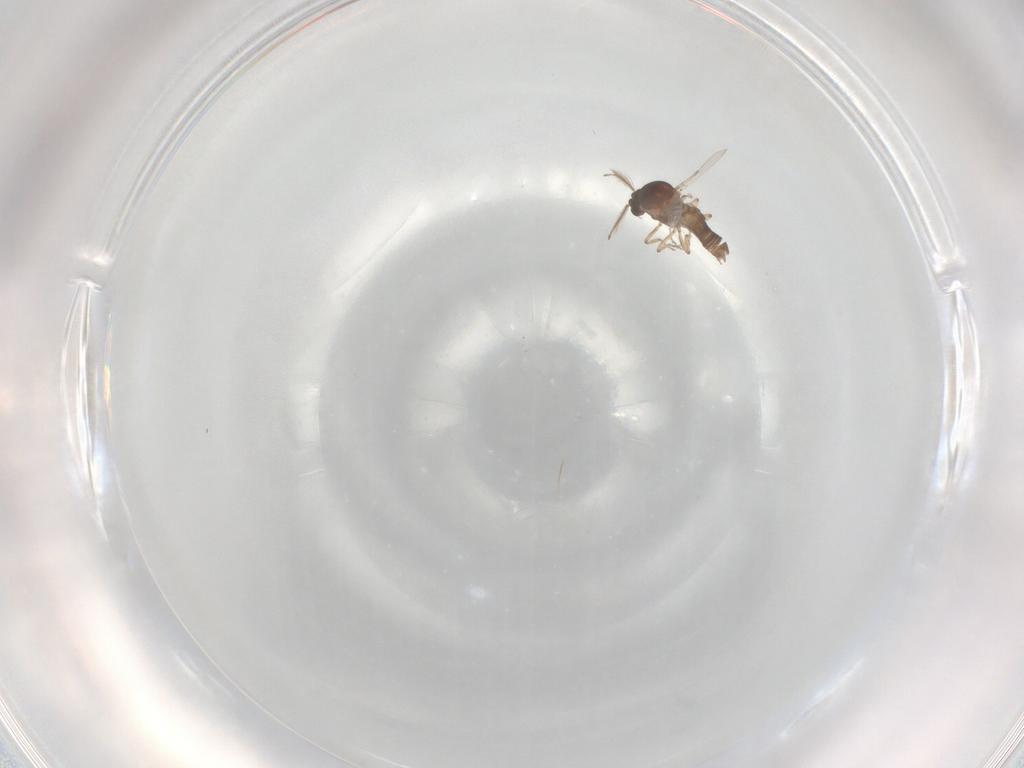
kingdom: Animalia
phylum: Arthropoda
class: Insecta
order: Diptera
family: Ceratopogonidae
